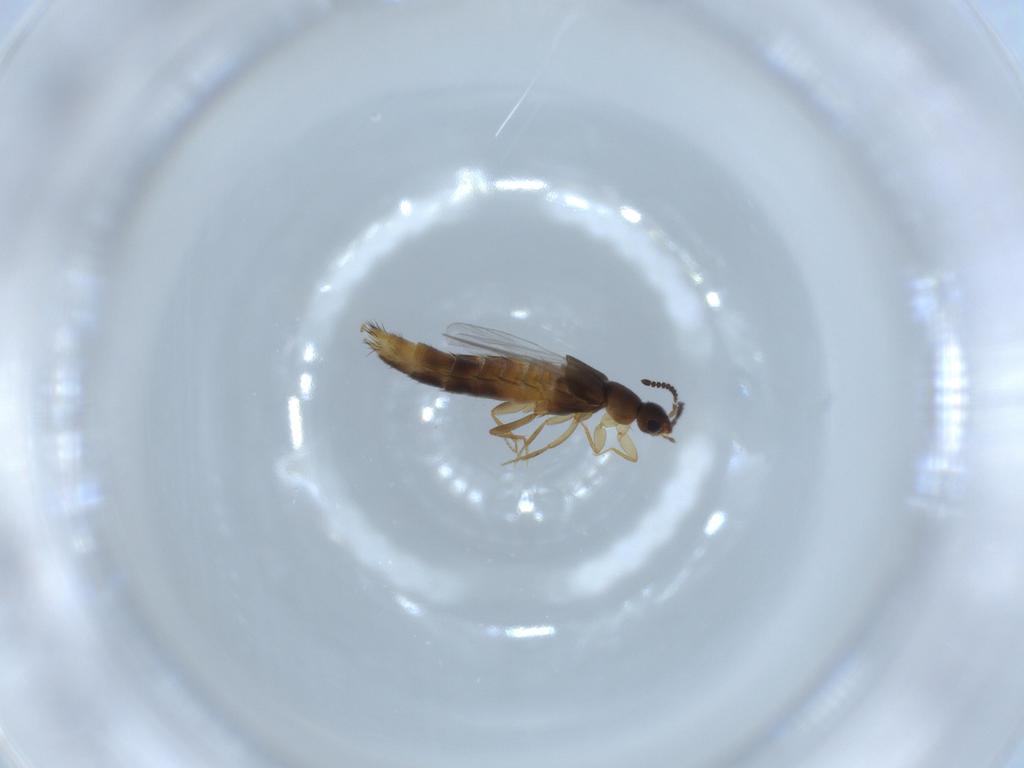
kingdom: Animalia
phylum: Arthropoda
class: Insecta
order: Coleoptera
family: Staphylinidae
